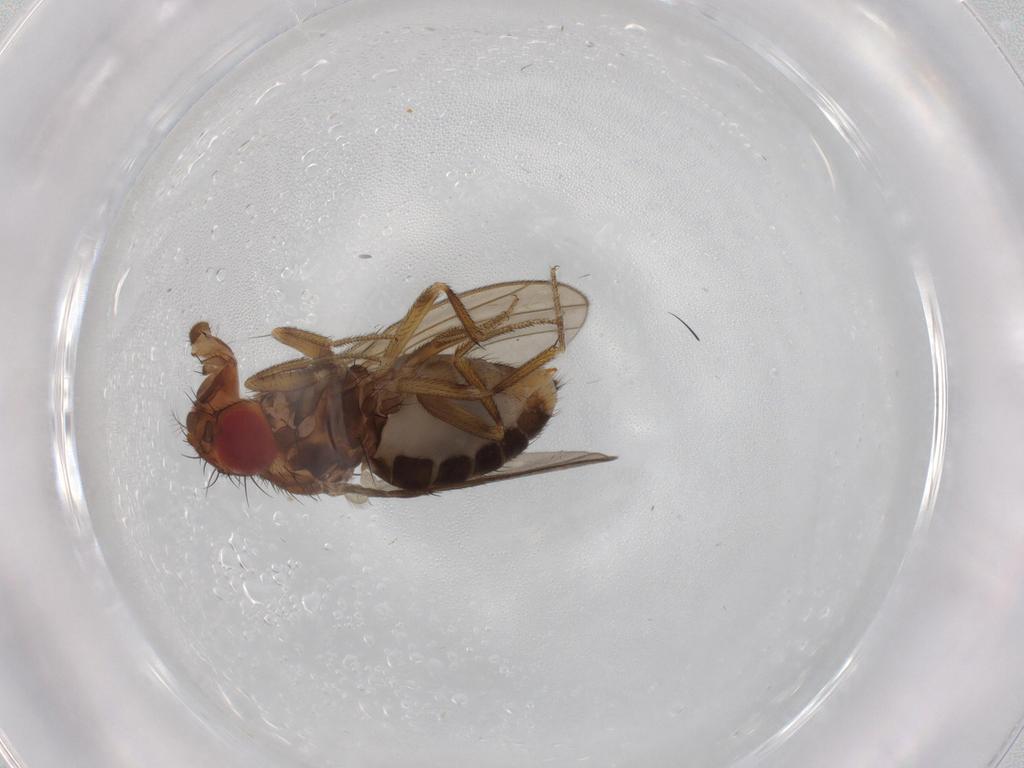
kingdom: Animalia
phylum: Arthropoda
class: Insecta
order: Diptera
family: Drosophilidae
